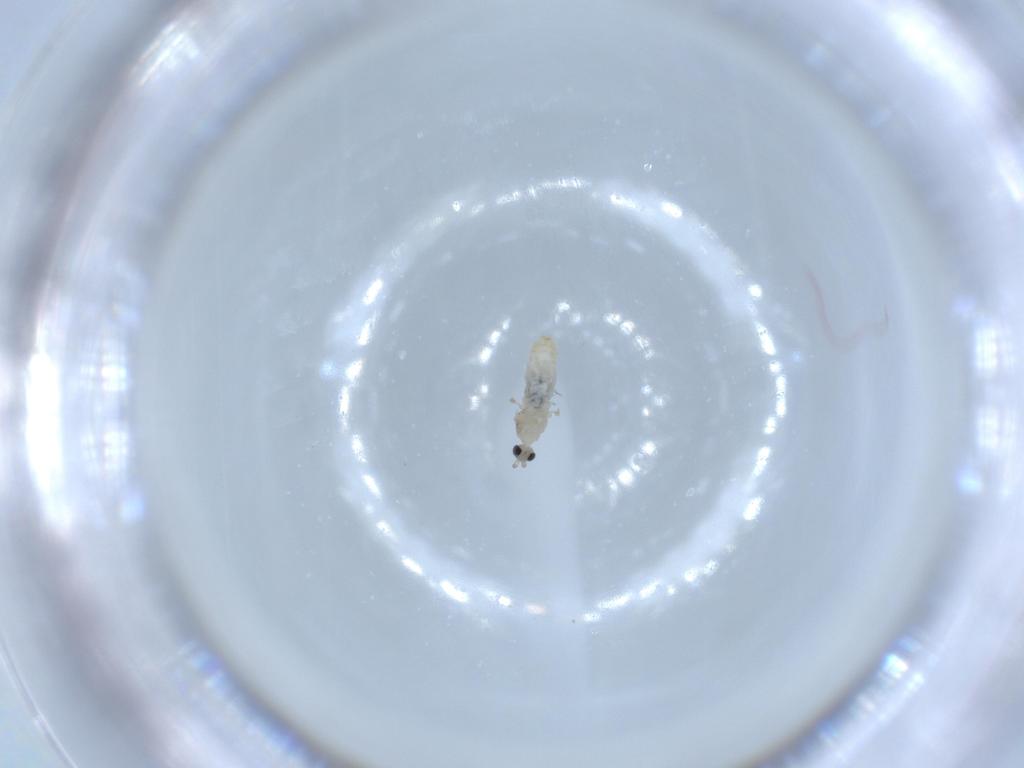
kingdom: Animalia
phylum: Arthropoda
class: Insecta
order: Diptera
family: Cecidomyiidae
